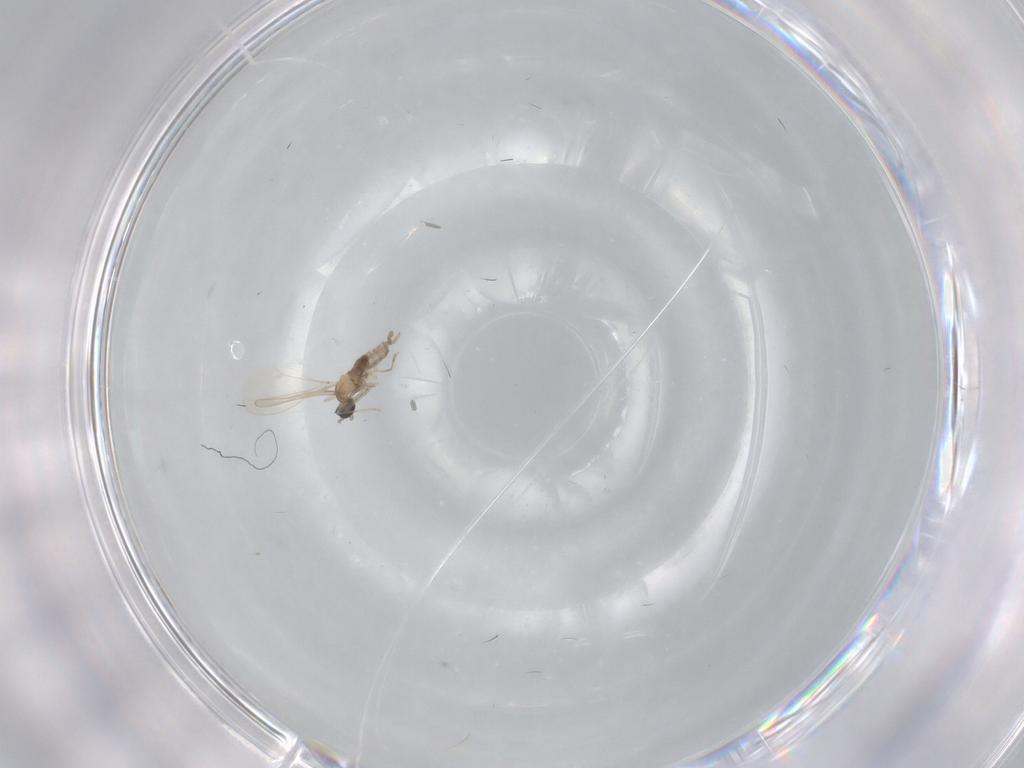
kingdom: Animalia
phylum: Arthropoda
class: Insecta
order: Diptera
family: Cecidomyiidae
